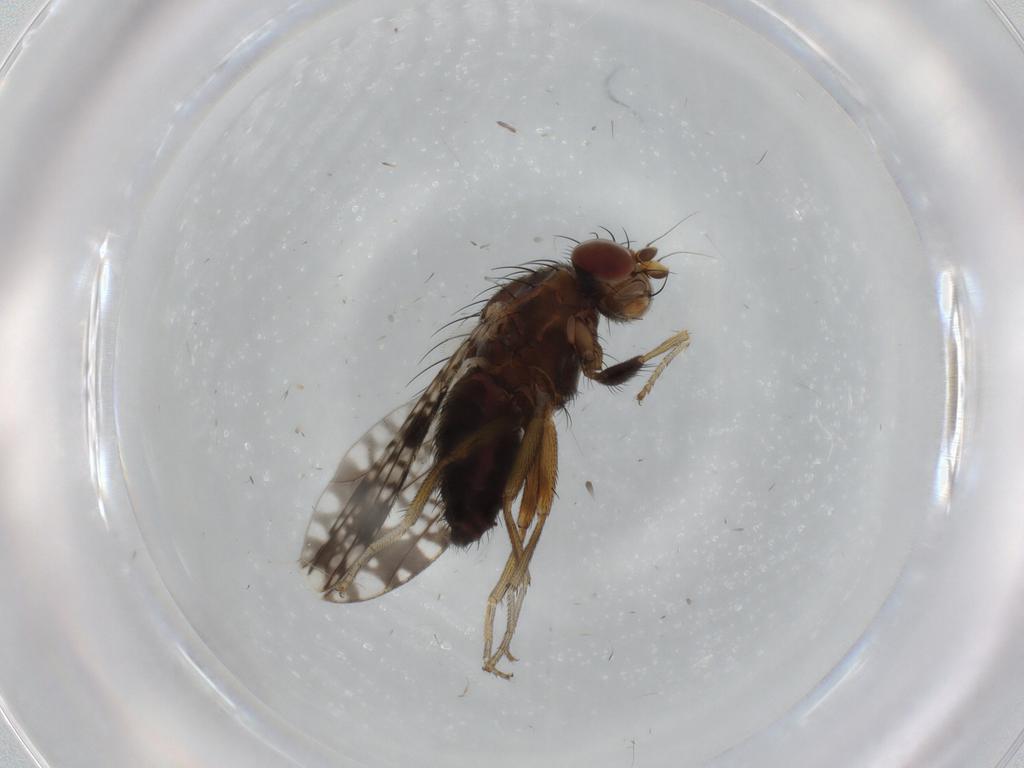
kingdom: Animalia
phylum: Arthropoda
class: Insecta
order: Diptera
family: Tephritidae
